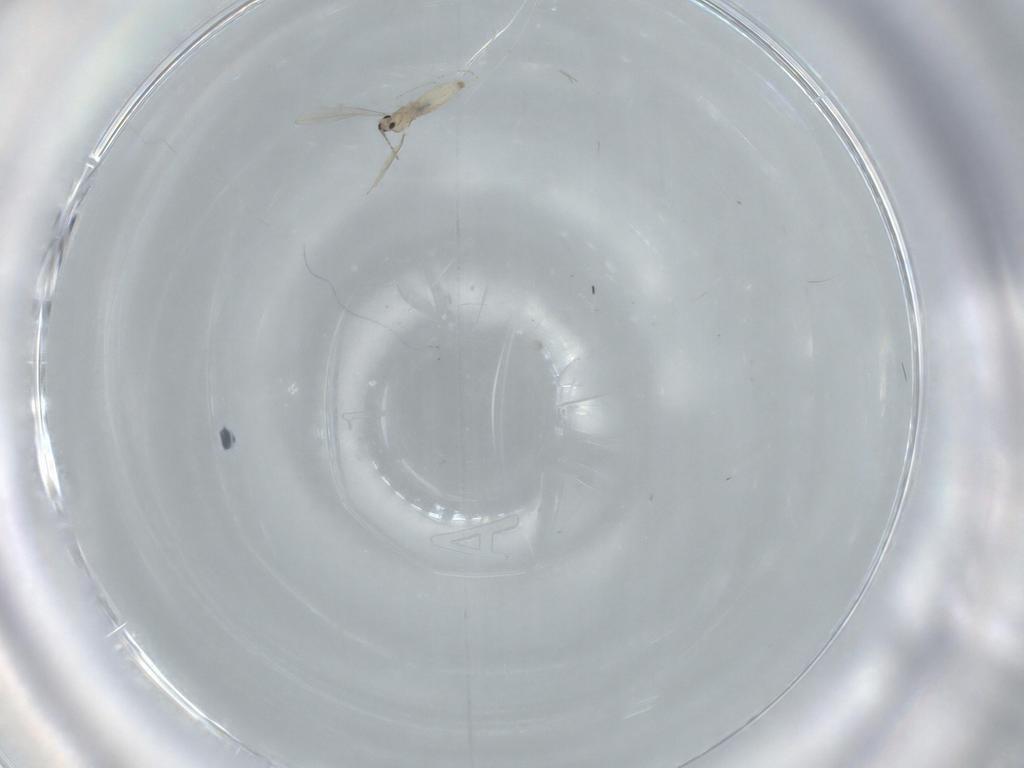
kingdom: Animalia
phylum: Arthropoda
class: Insecta
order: Diptera
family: Cecidomyiidae
